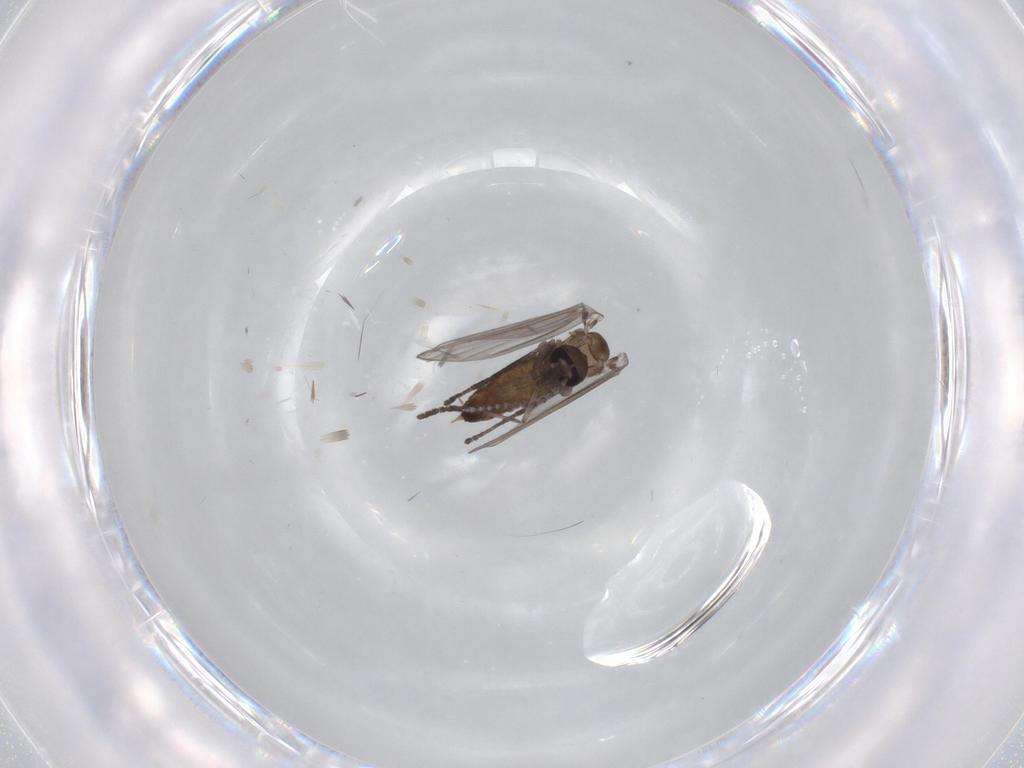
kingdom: Animalia
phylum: Arthropoda
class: Insecta
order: Diptera
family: Psychodidae
